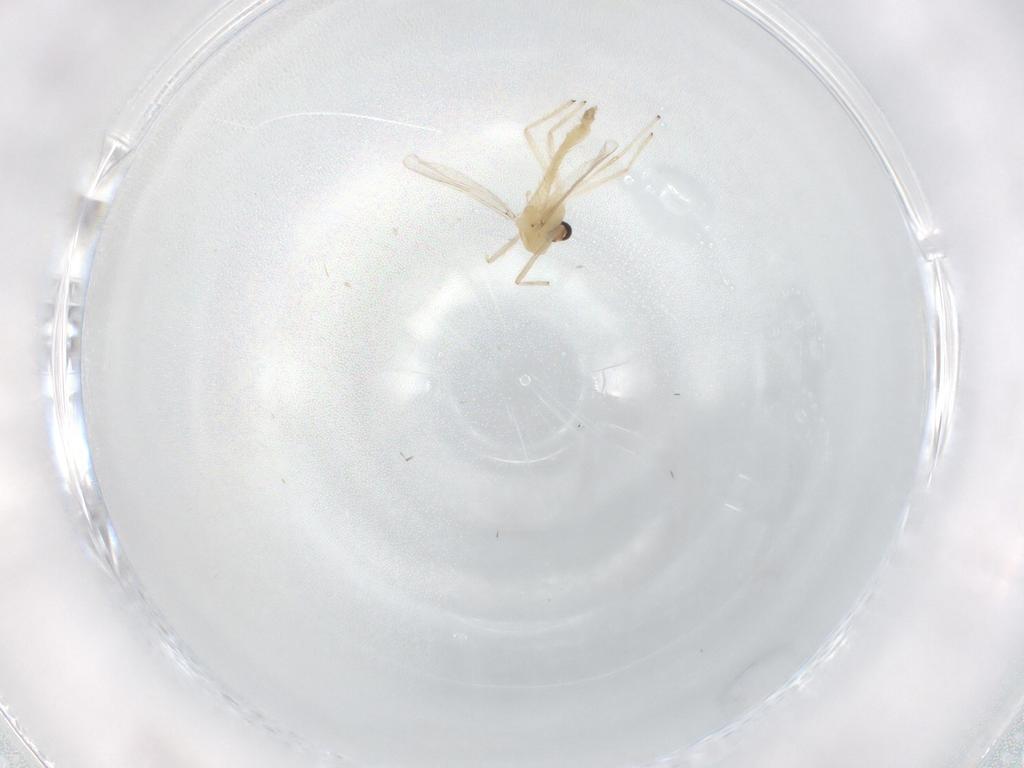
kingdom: Animalia
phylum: Arthropoda
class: Insecta
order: Diptera
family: Chironomidae
